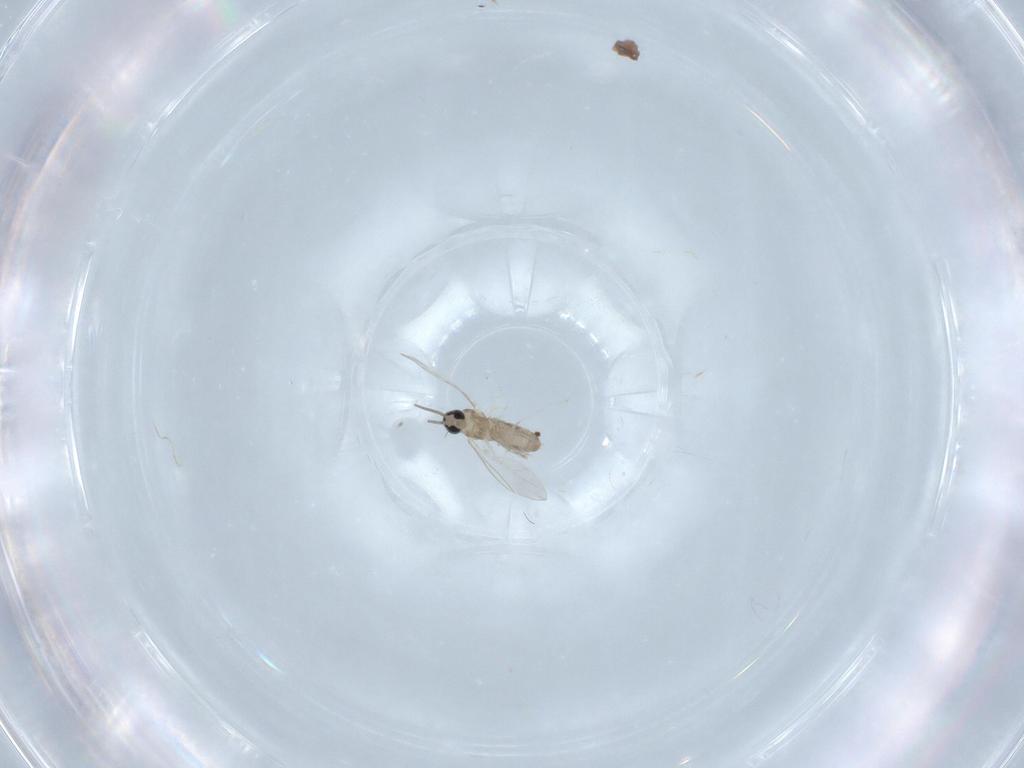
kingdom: Animalia
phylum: Arthropoda
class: Insecta
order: Diptera
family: Cecidomyiidae
